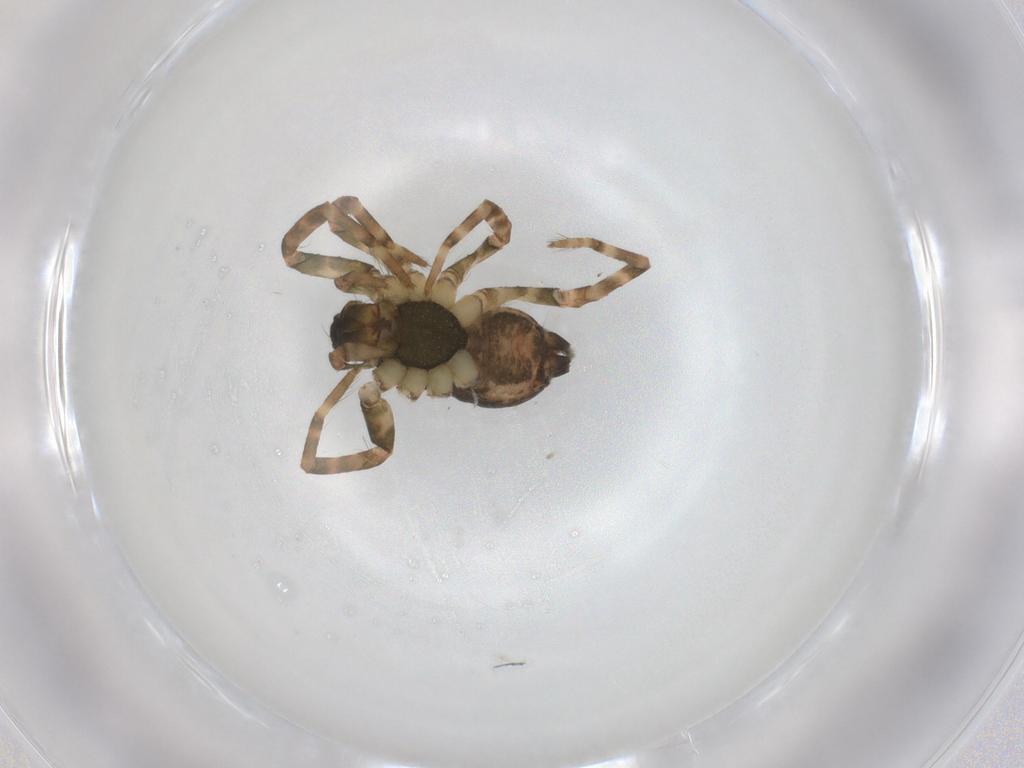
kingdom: Animalia
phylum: Arthropoda
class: Arachnida
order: Araneae
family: Agelenidae
